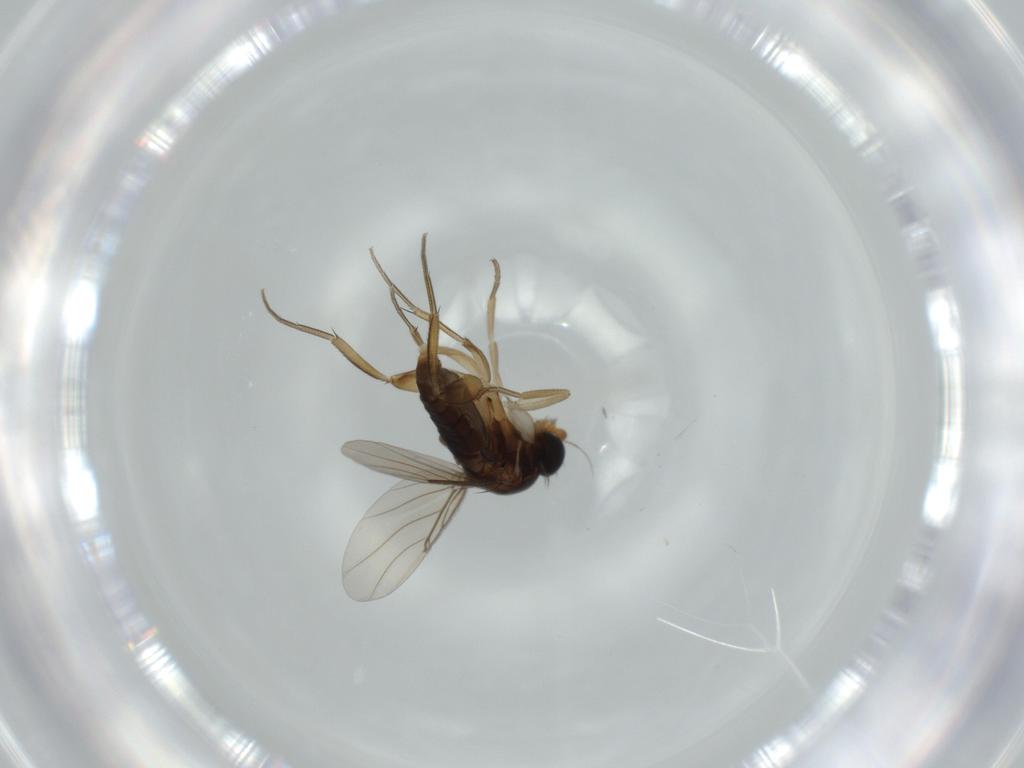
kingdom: Animalia
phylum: Arthropoda
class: Insecta
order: Diptera
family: Phoridae
